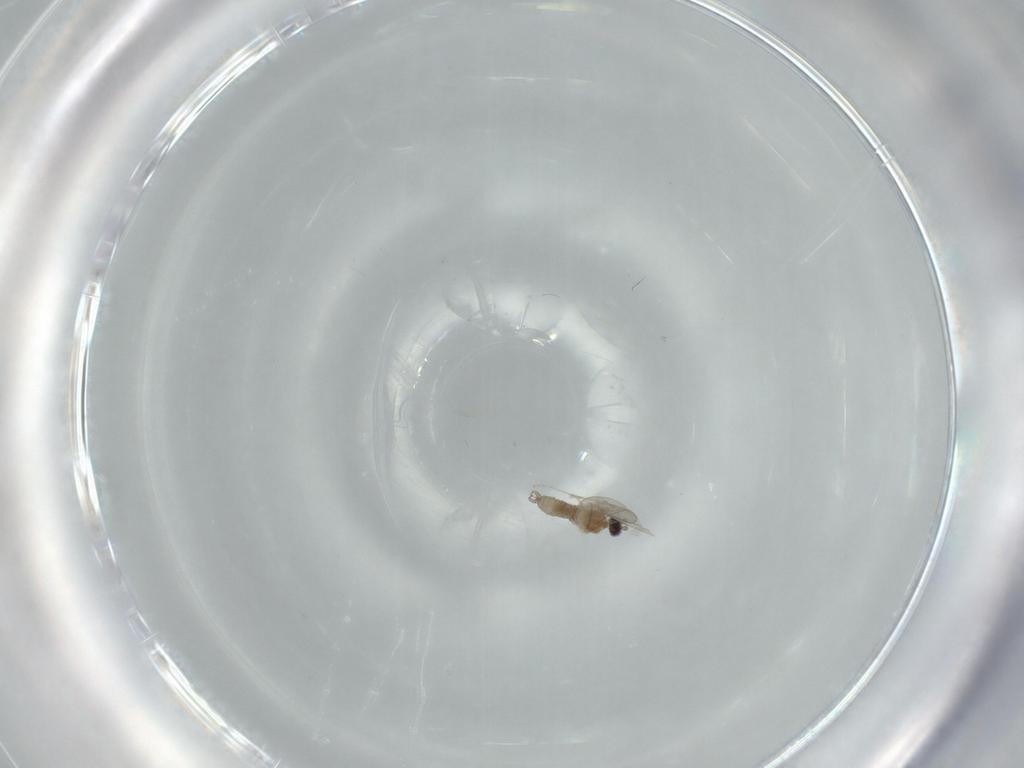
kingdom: Animalia
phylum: Arthropoda
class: Insecta
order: Diptera
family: Cecidomyiidae
